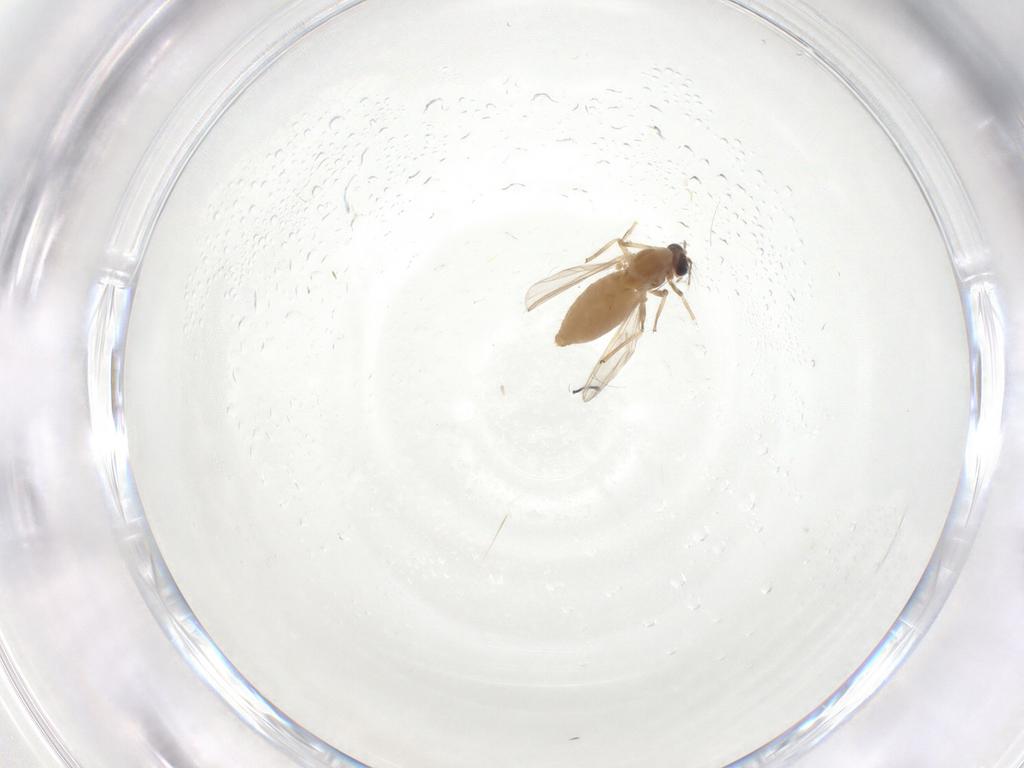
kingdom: Animalia
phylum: Arthropoda
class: Insecta
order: Diptera
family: Chironomidae
